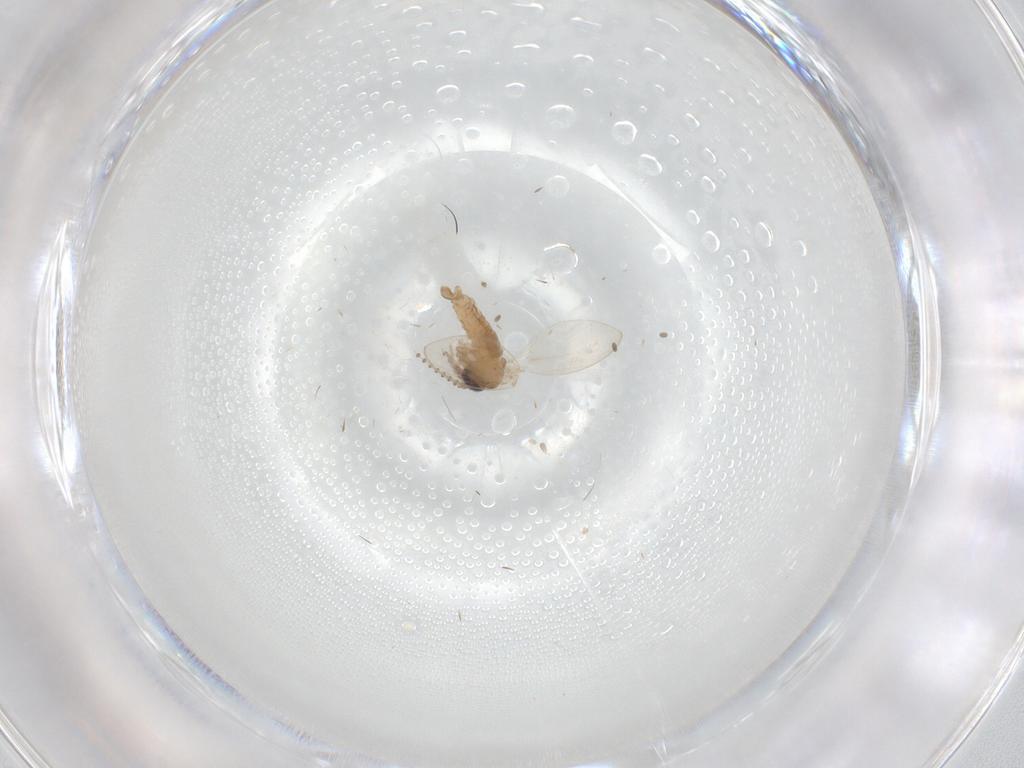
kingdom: Animalia
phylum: Arthropoda
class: Insecta
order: Diptera
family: Psychodidae
